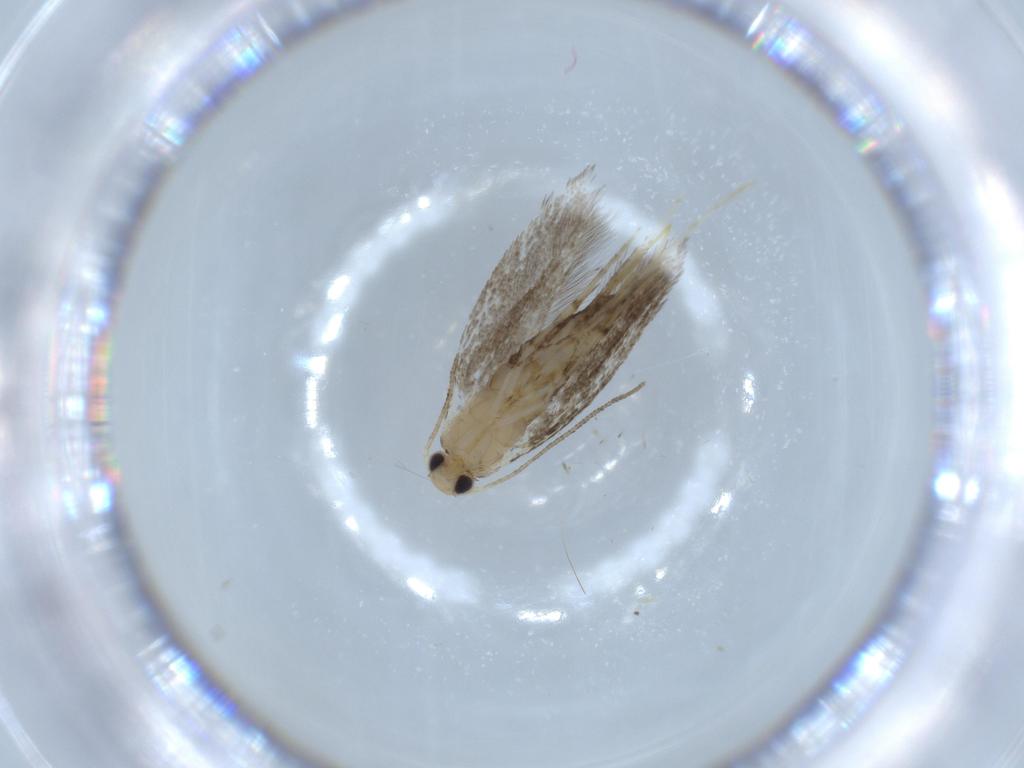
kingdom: Animalia
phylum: Arthropoda
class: Insecta
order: Lepidoptera
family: Argyresthiidae
